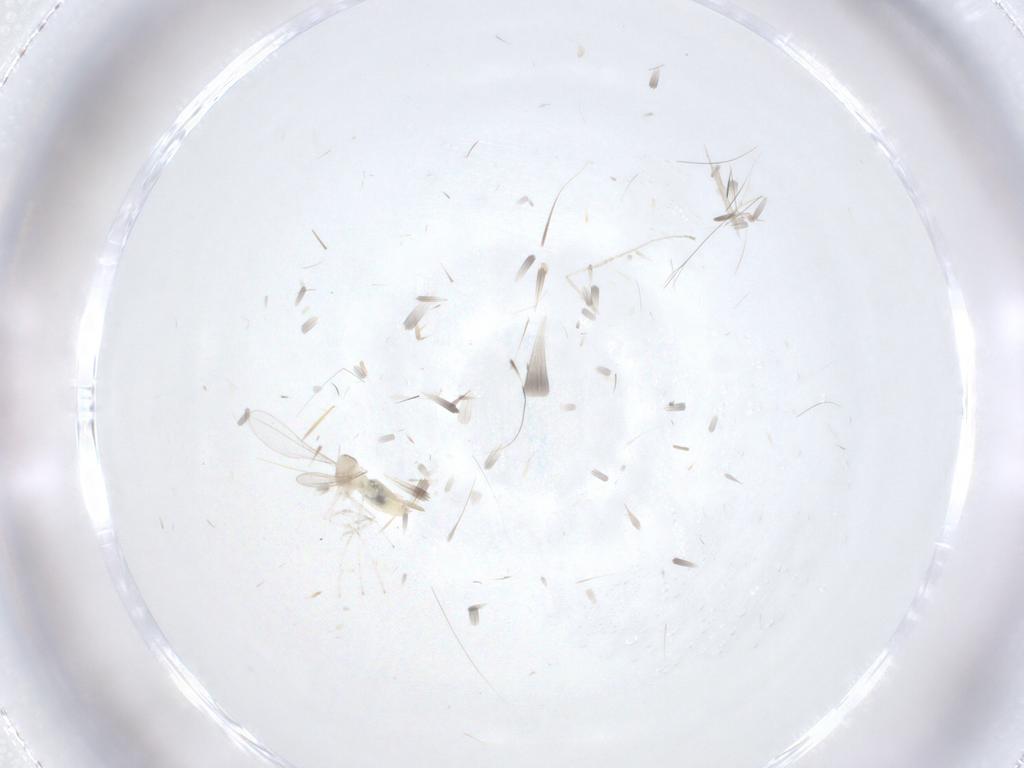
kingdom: Animalia
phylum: Arthropoda
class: Insecta
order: Diptera
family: Cecidomyiidae
